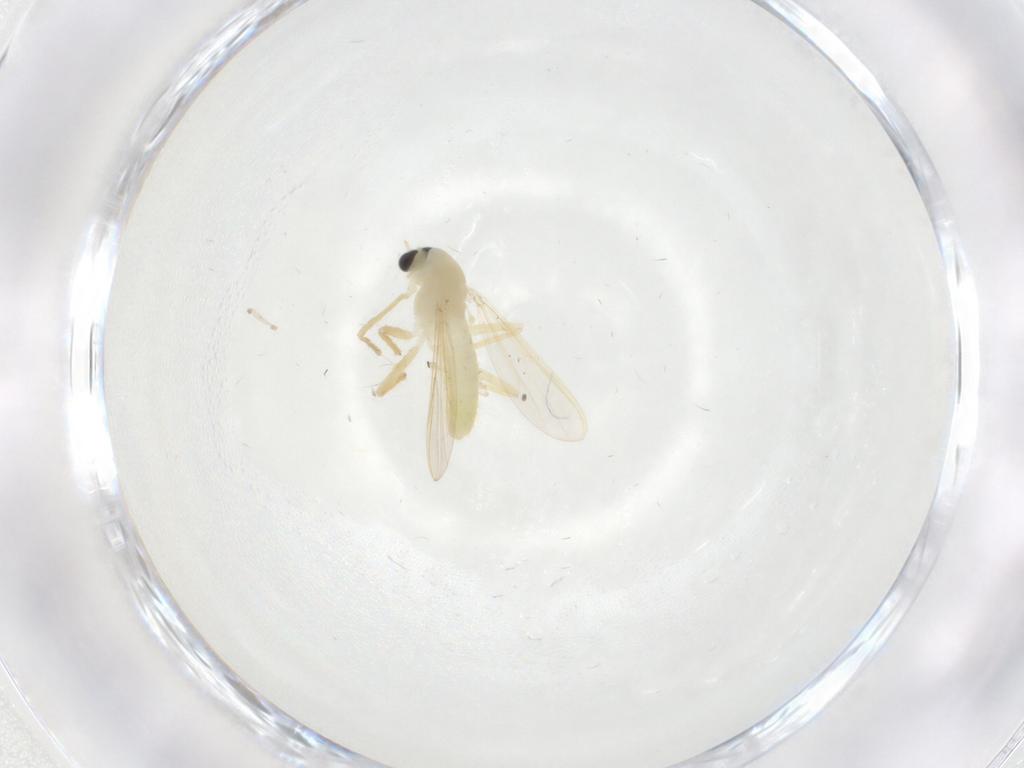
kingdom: Animalia
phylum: Arthropoda
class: Insecta
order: Diptera
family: Chironomidae
